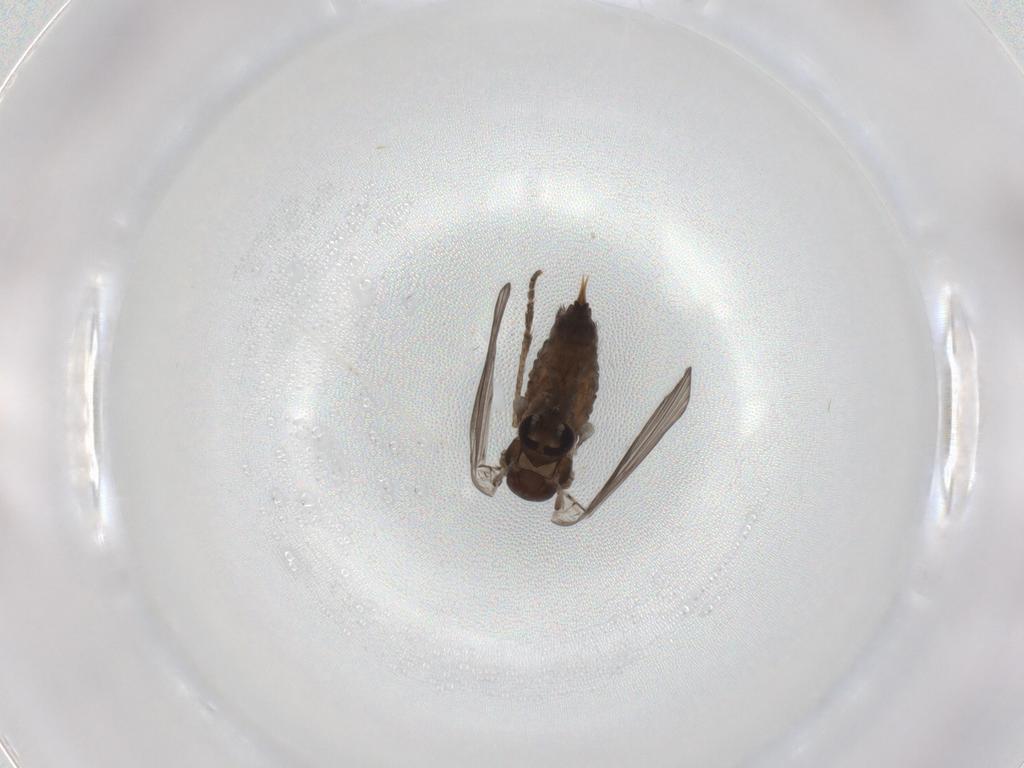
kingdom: Animalia
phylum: Arthropoda
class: Insecta
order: Diptera
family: Psychodidae
